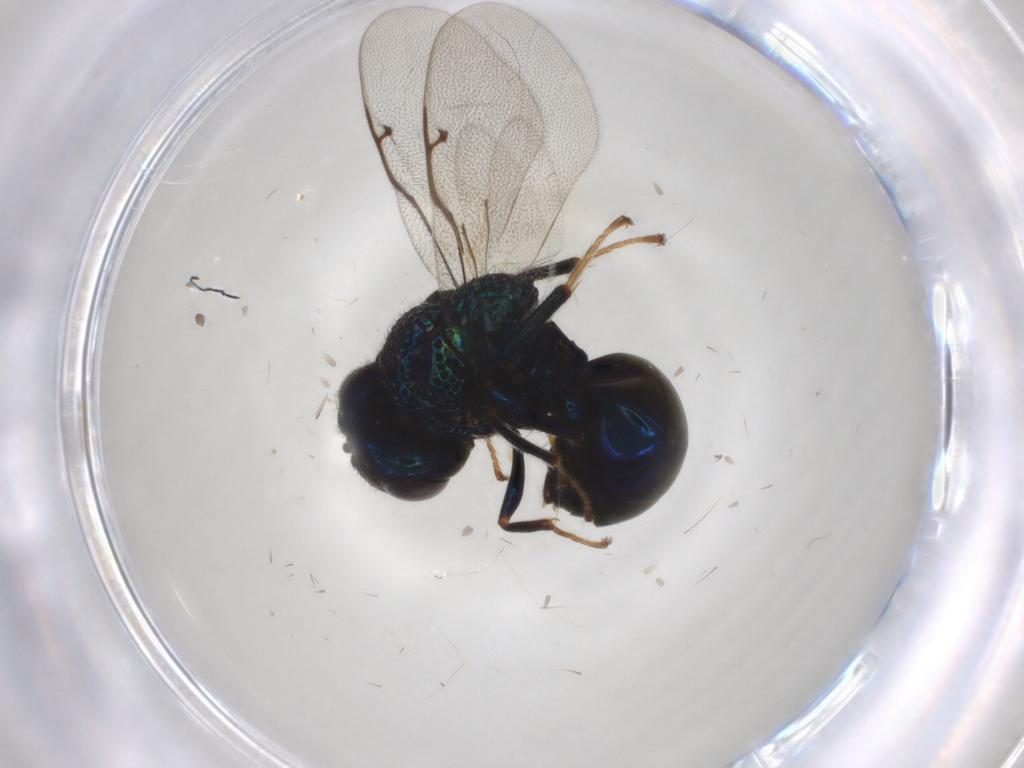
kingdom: Animalia
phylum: Arthropoda
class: Insecta
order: Hymenoptera
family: Perilampidae
